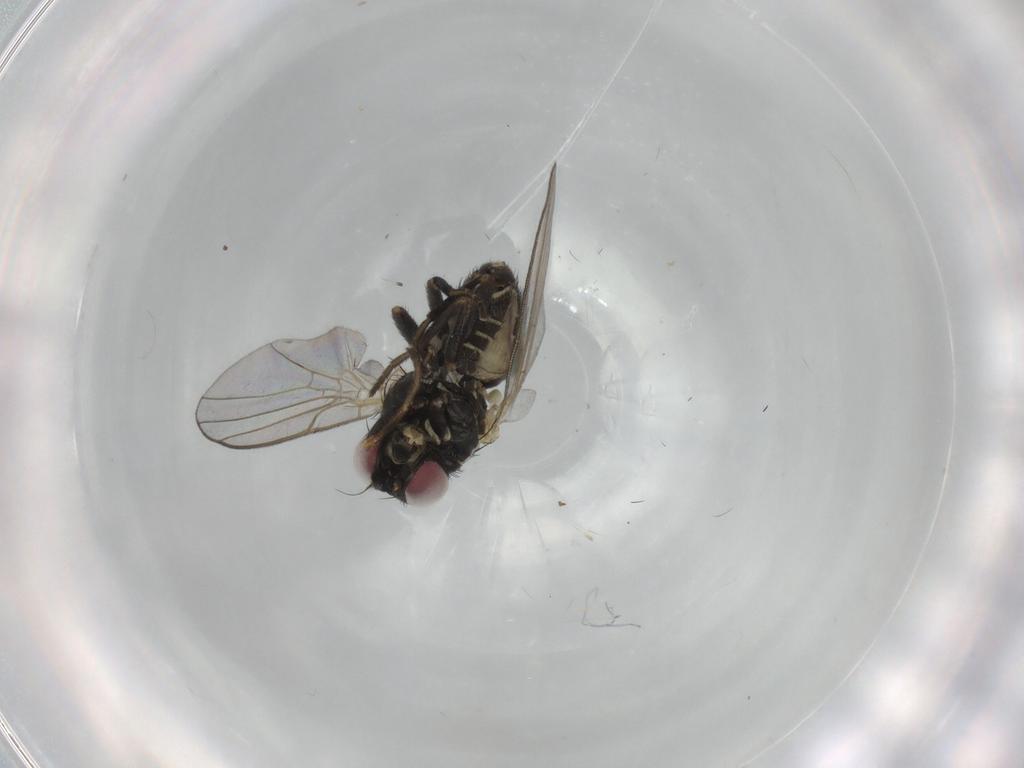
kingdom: Animalia
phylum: Arthropoda
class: Insecta
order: Diptera
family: Agromyzidae
